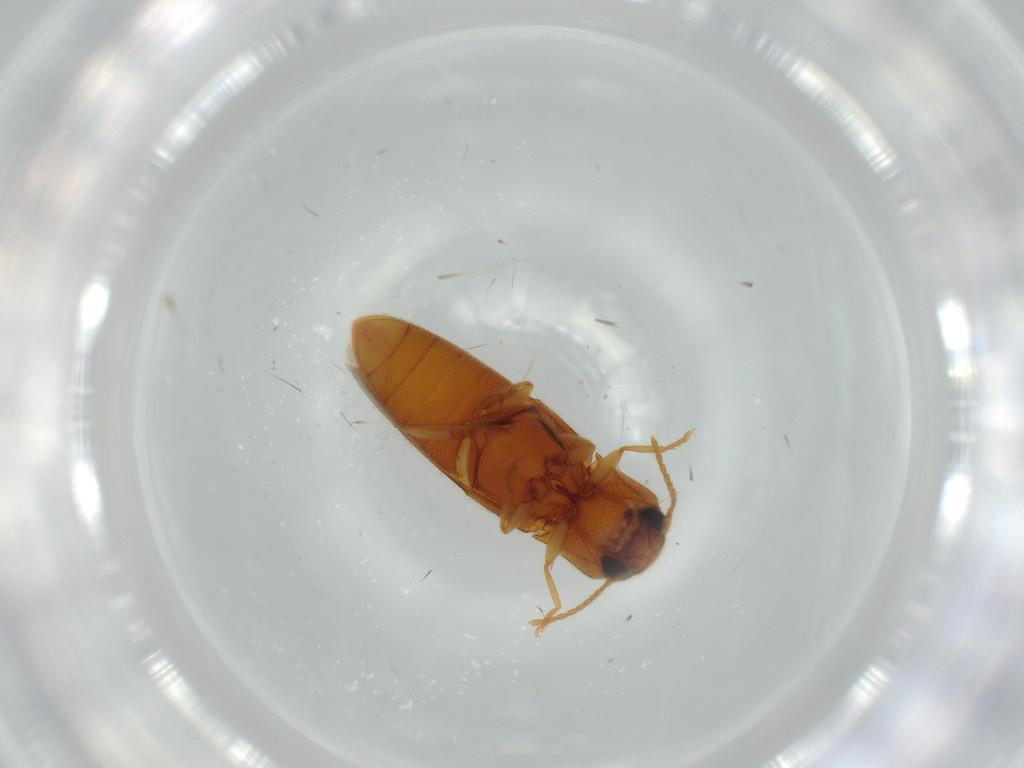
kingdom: Animalia
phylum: Arthropoda
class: Insecta
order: Coleoptera
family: Elateridae
